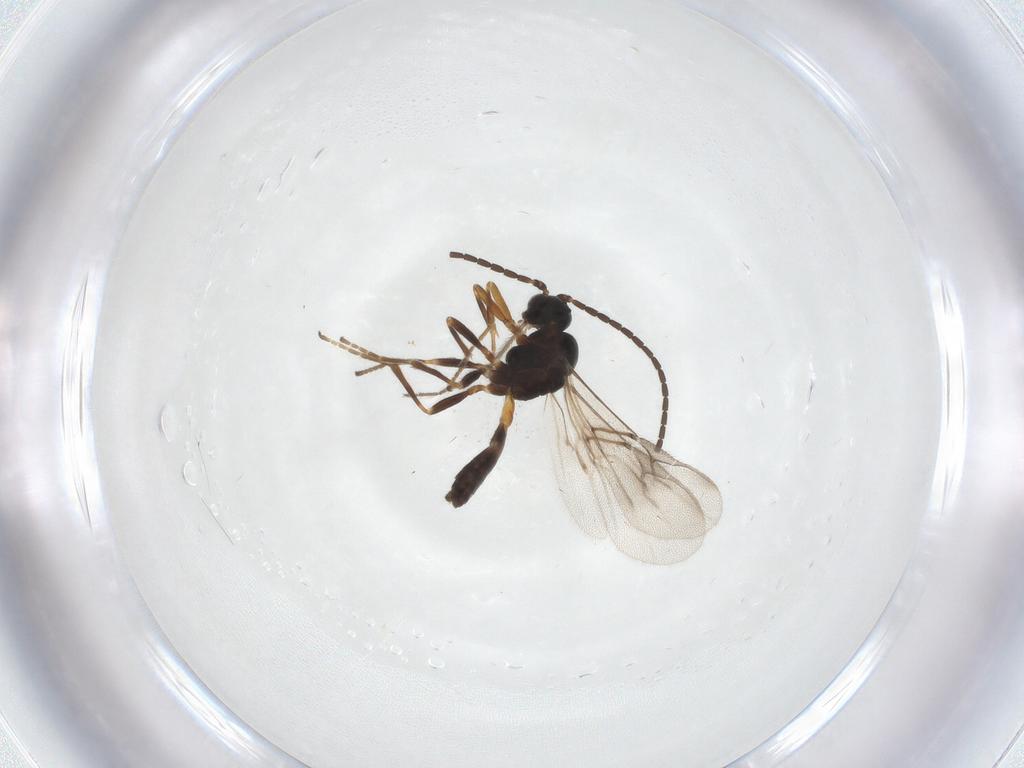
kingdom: Animalia
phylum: Arthropoda
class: Insecta
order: Hymenoptera
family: Braconidae
